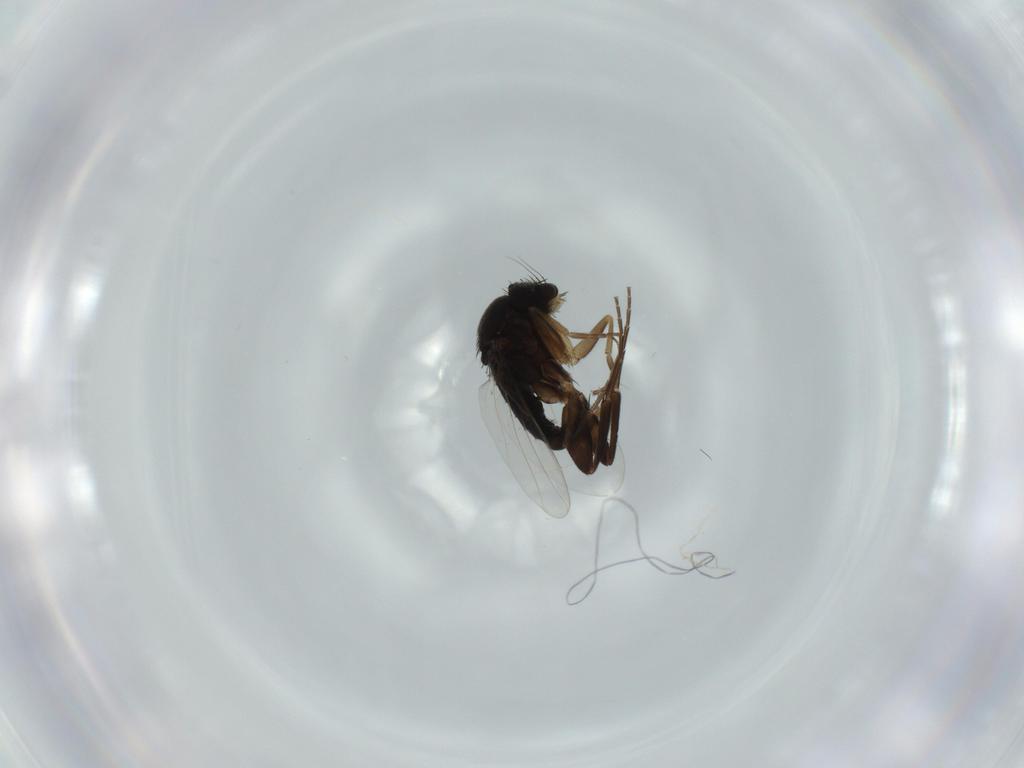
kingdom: Animalia
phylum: Arthropoda
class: Insecta
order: Diptera
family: Phoridae
